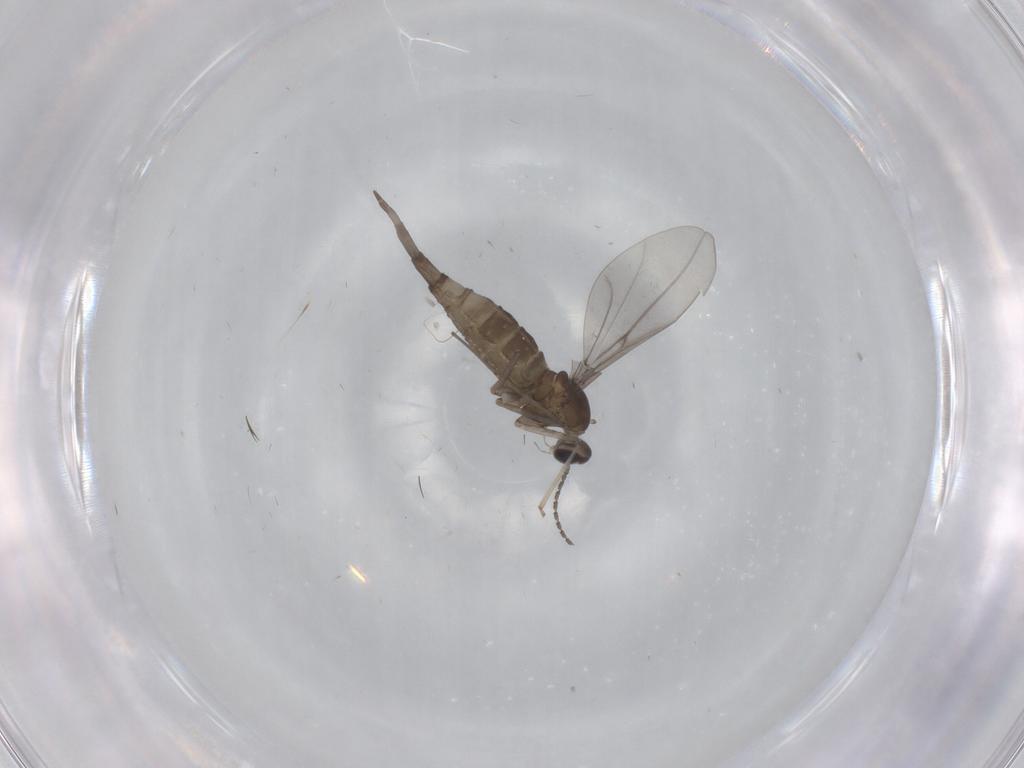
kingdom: Animalia
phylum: Arthropoda
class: Insecta
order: Diptera
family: Cecidomyiidae
